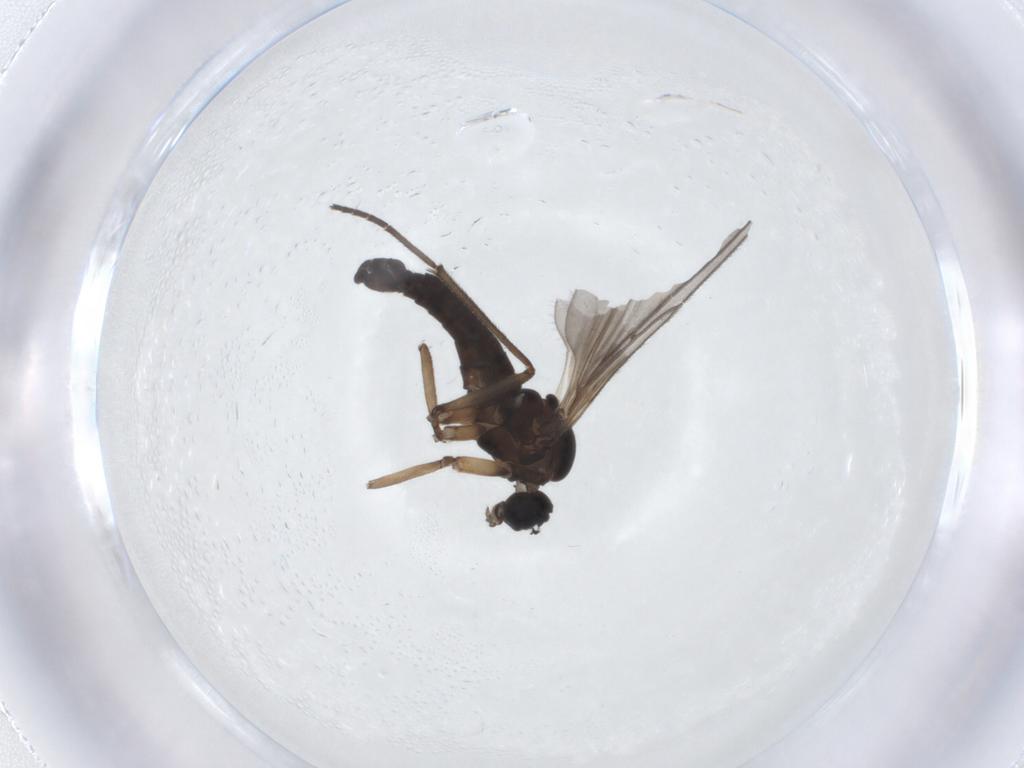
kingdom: Animalia
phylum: Arthropoda
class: Insecta
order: Diptera
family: Sciaridae
